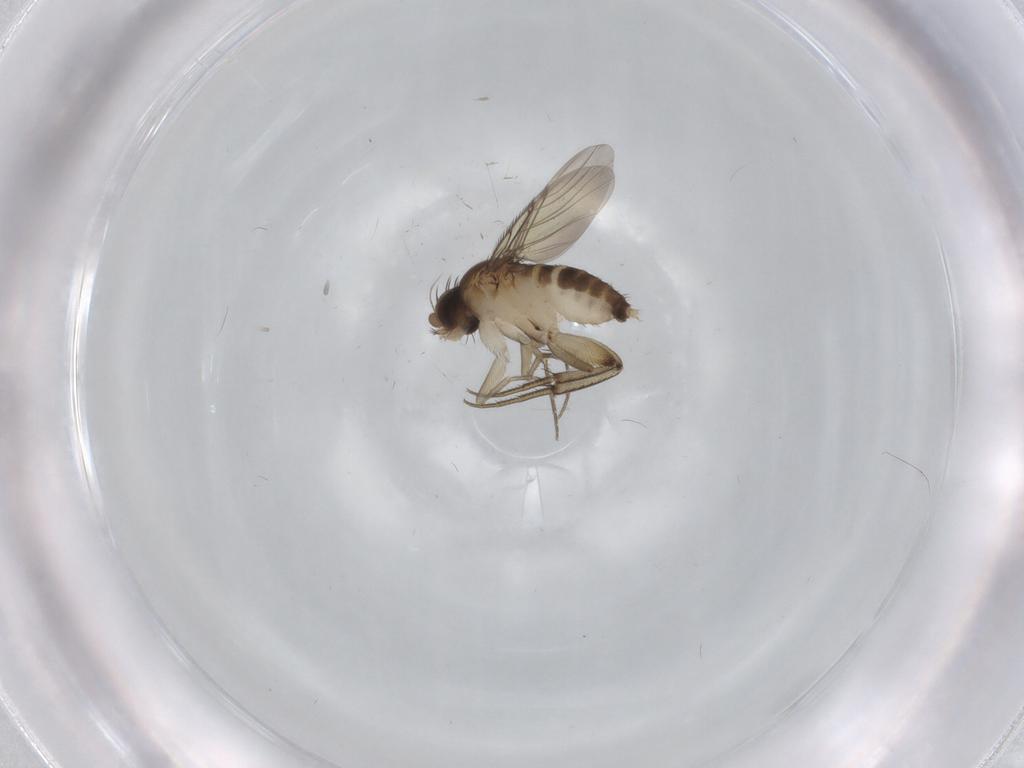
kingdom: Animalia
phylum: Arthropoda
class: Insecta
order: Diptera
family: Phoridae
